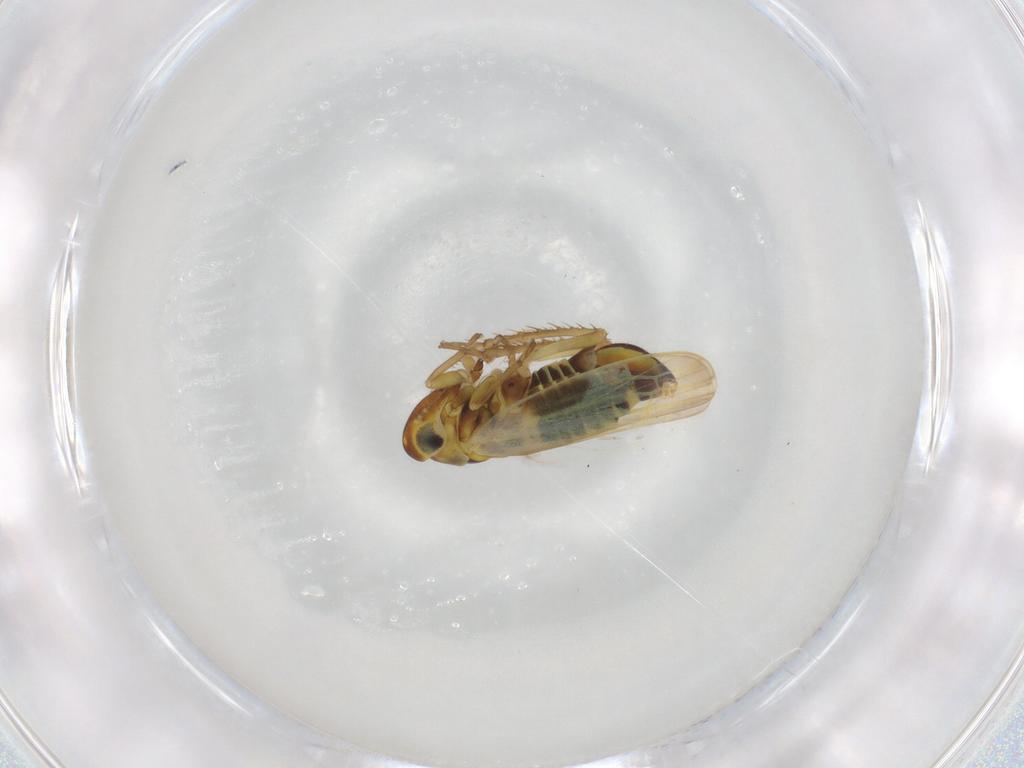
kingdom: Animalia
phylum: Arthropoda
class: Insecta
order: Hemiptera
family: Cicadellidae
